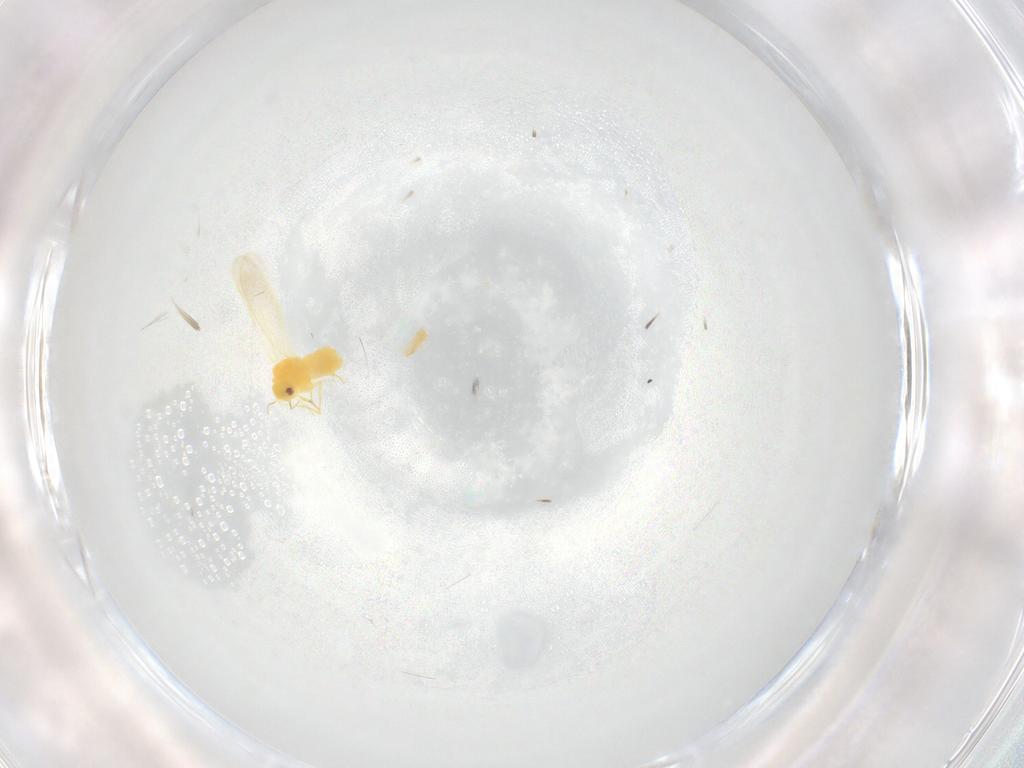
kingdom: Animalia
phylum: Arthropoda
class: Insecta
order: Hemiptera
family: Aleyrodidae
